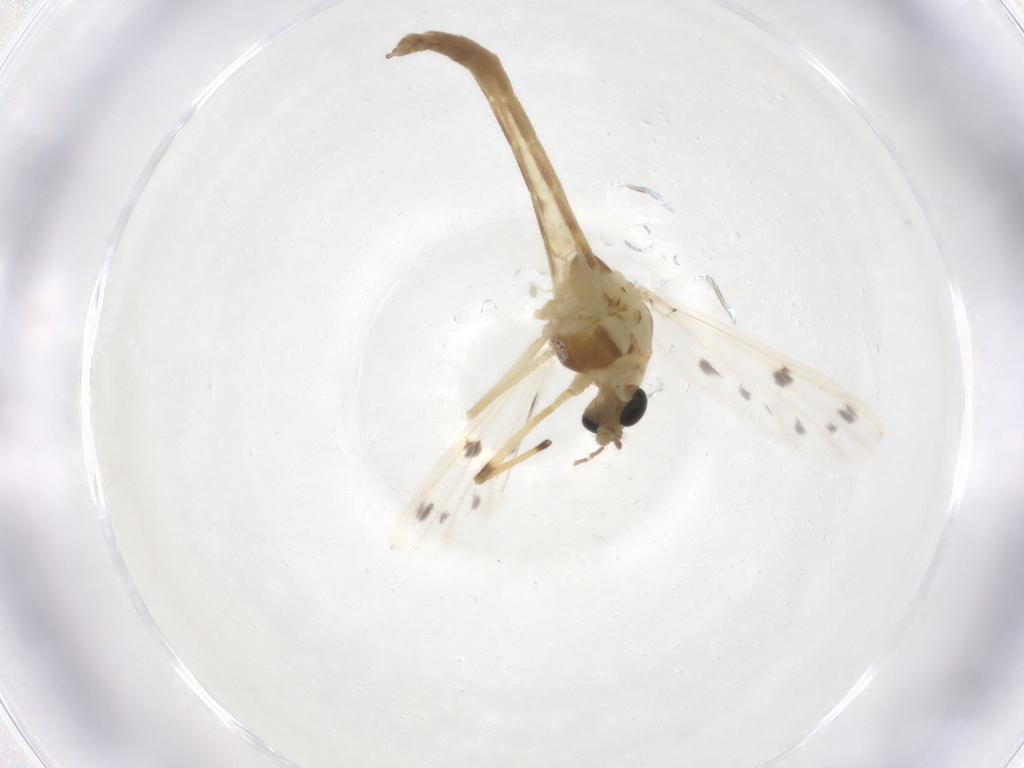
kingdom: Animalia
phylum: Arthropoda
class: Insecta
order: Diptera
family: Chironomidae
